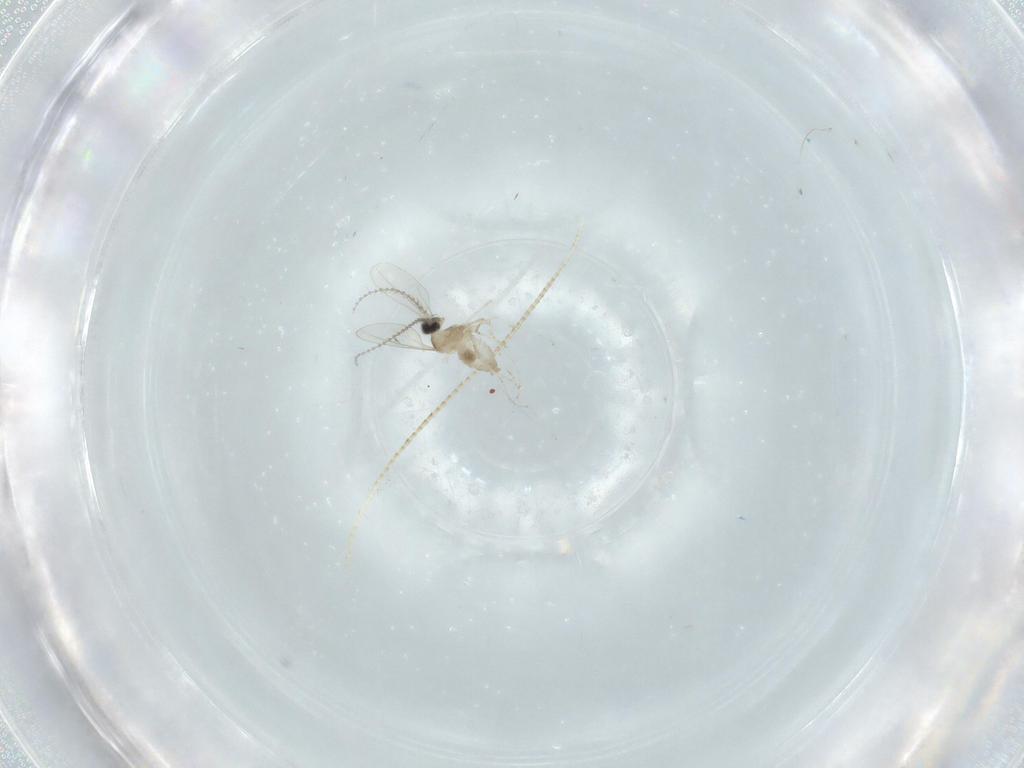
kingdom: Animalia
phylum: Arthropoda
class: Insecta
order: Diptera
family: Cecidomyiidae
